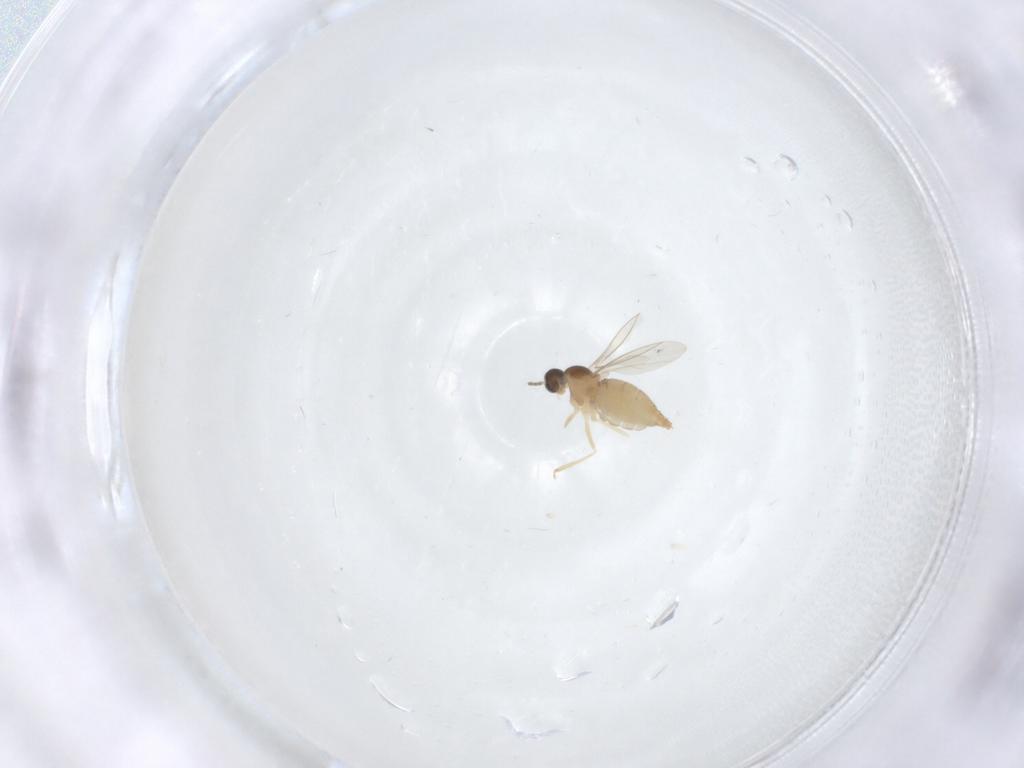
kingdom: Animalia
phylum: Arthropoda
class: Insecta
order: Diptera
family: Cecidomyiidae
